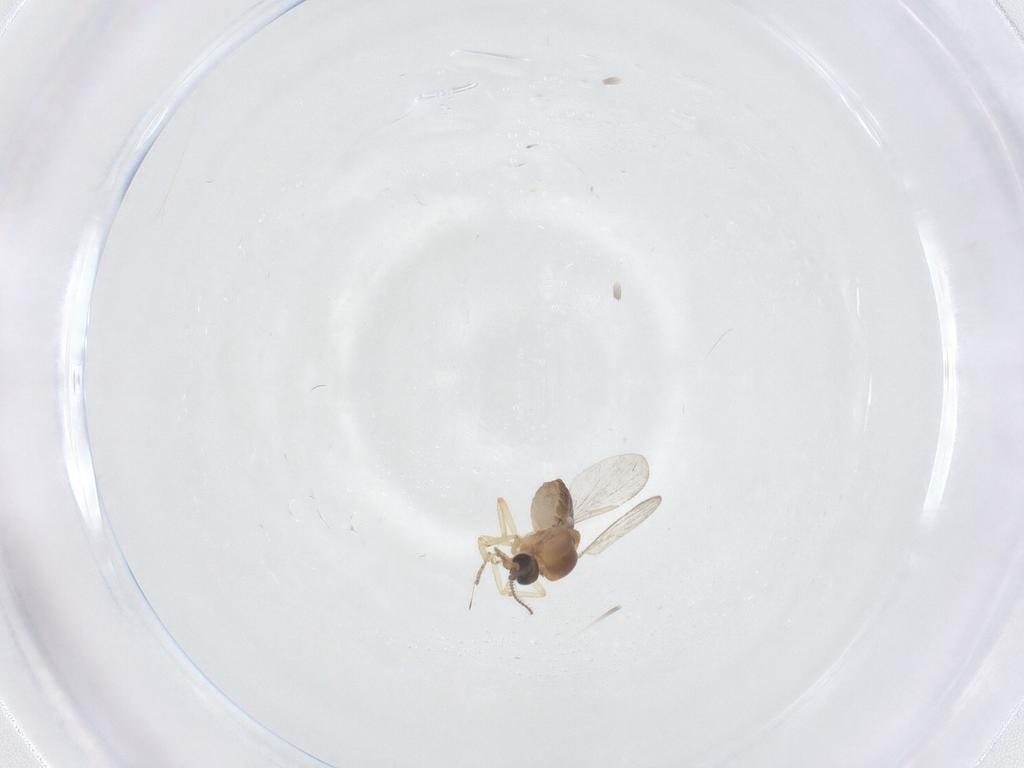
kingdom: Animalia
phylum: Arthropoda
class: Insecta
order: Diptera
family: Ceratopogonidae
